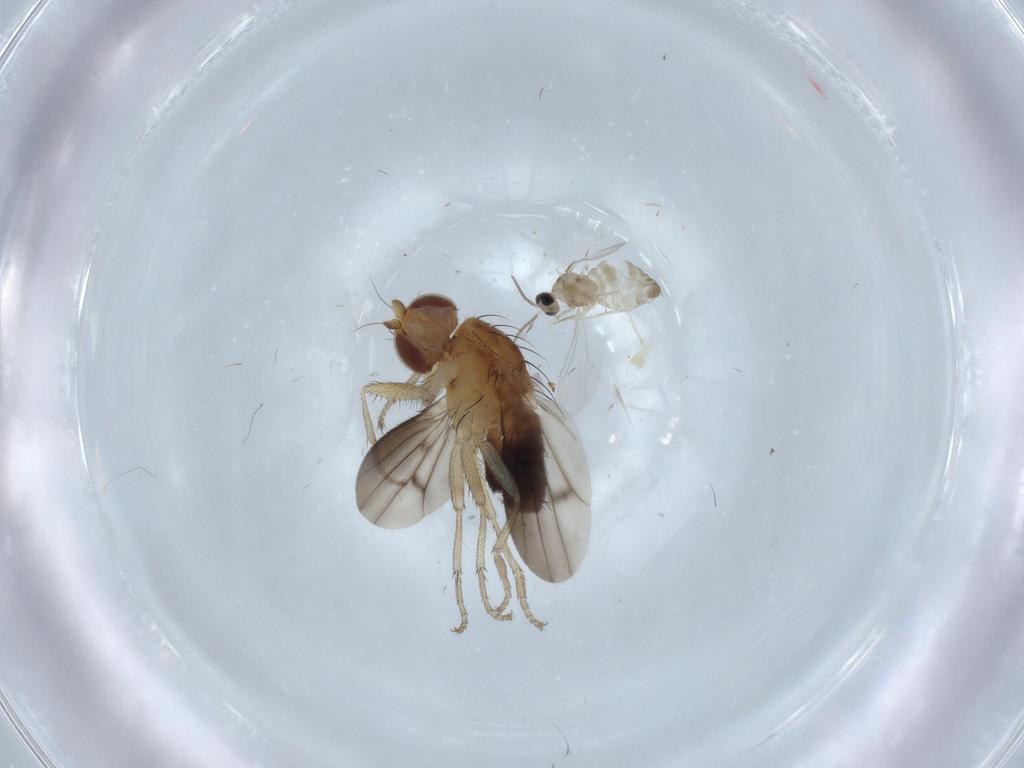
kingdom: Animalia
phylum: Arthropoda
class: Insecta
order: Diptera
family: Cecidomyiidae
